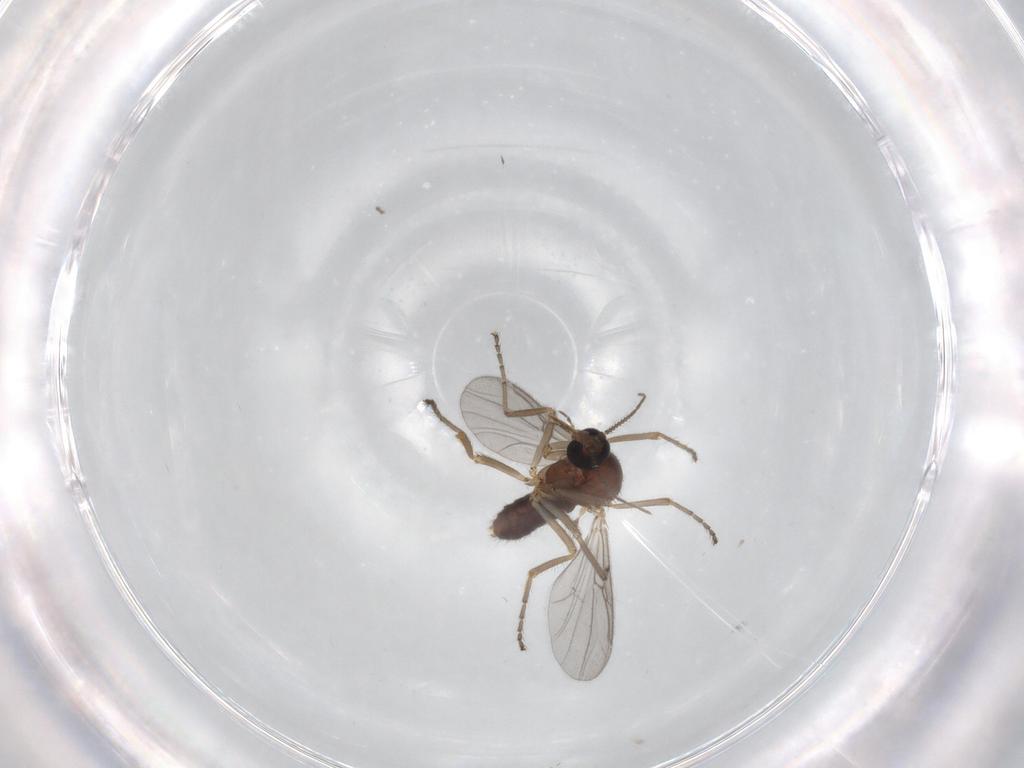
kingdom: Animalia
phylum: Arthropoda
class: Insecta
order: Diptera
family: Ceratopogonidae
